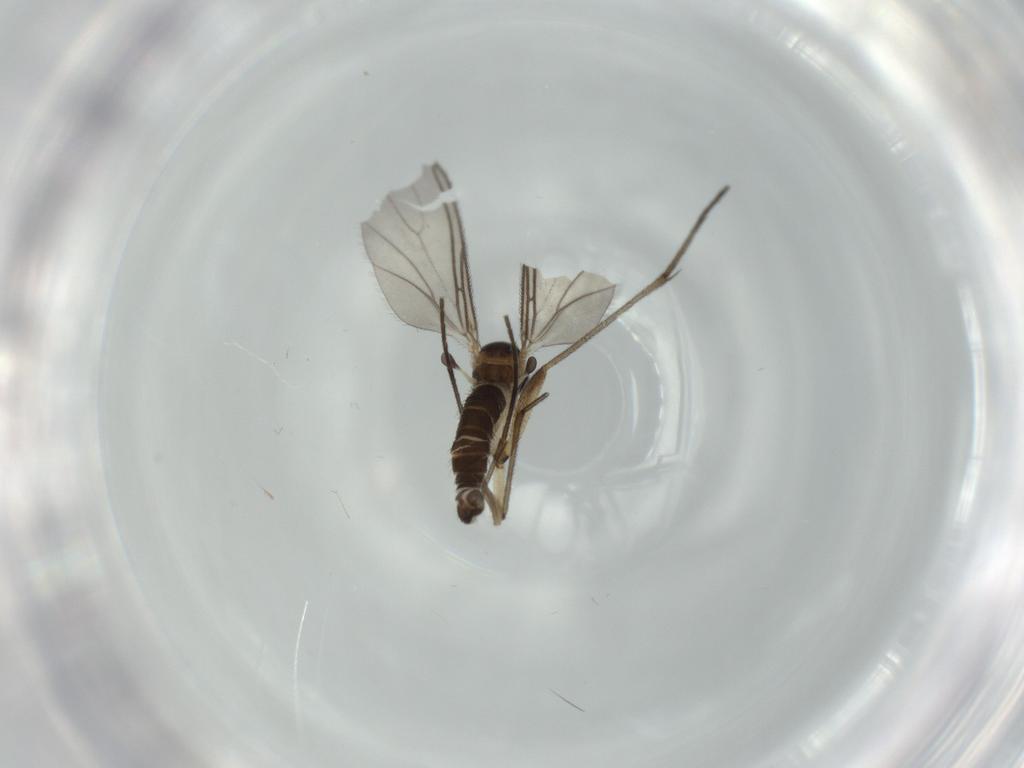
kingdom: Animalia
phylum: Arthropoda
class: Insecta
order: Diptera
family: Sciaridae
